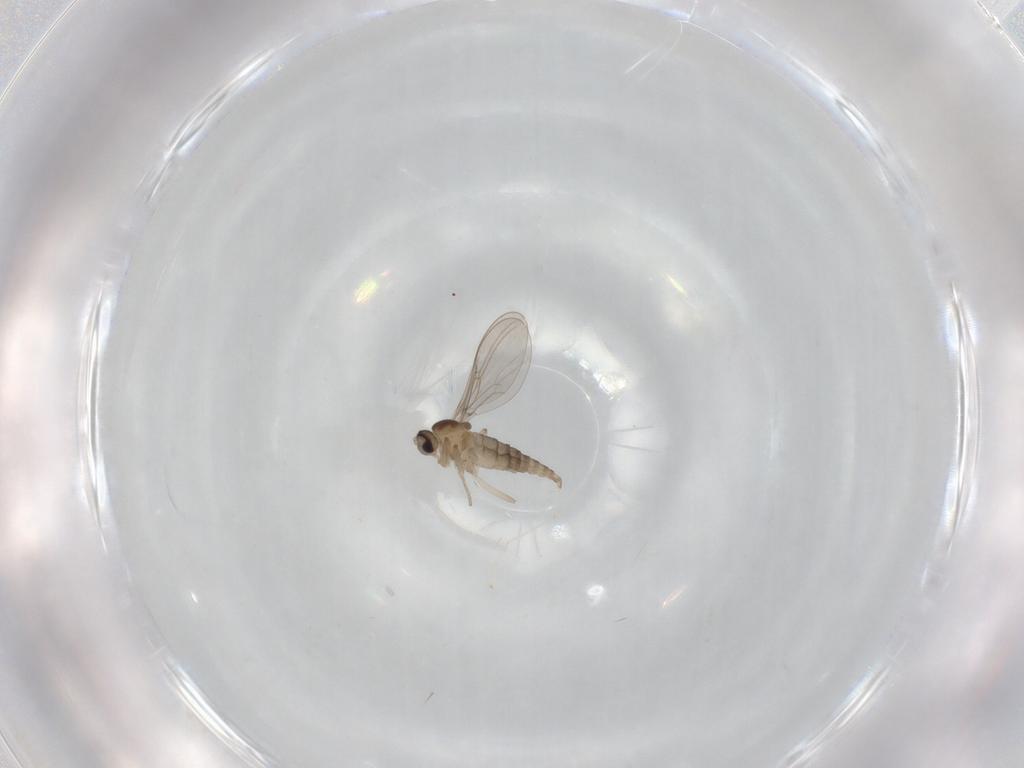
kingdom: Animalia
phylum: Arthropoda
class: Insecta
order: Diptera
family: Cecidomyiidae
